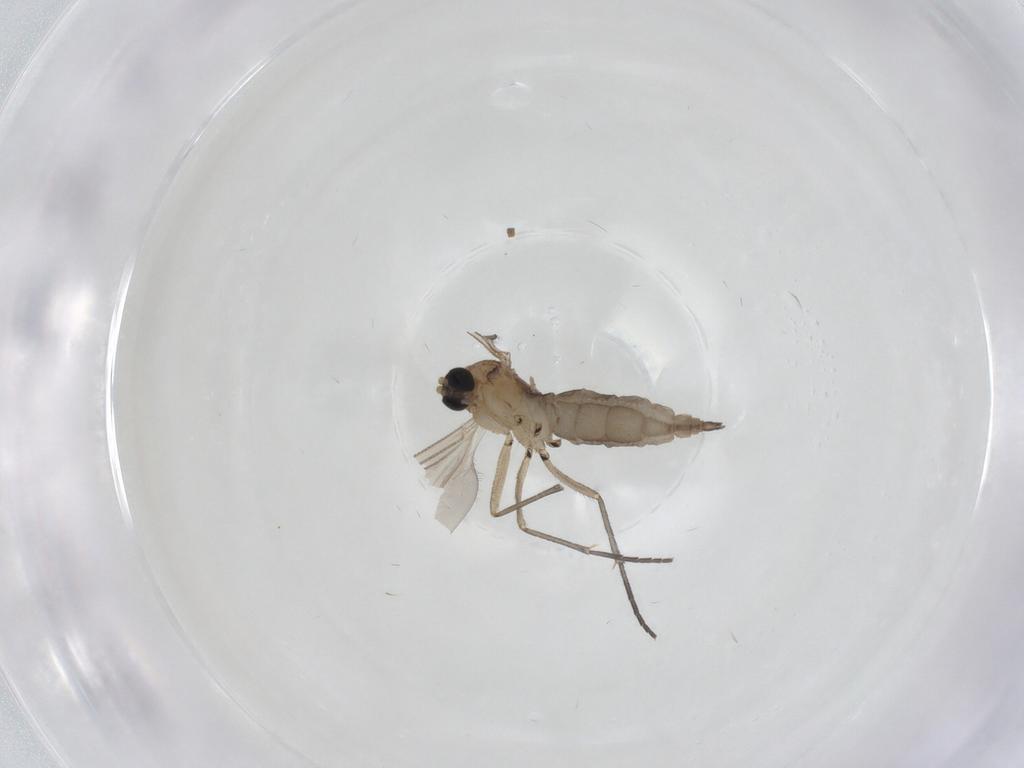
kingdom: Animalia
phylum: Arthropoda
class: Insecta
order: Diptera
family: Sciaridae
